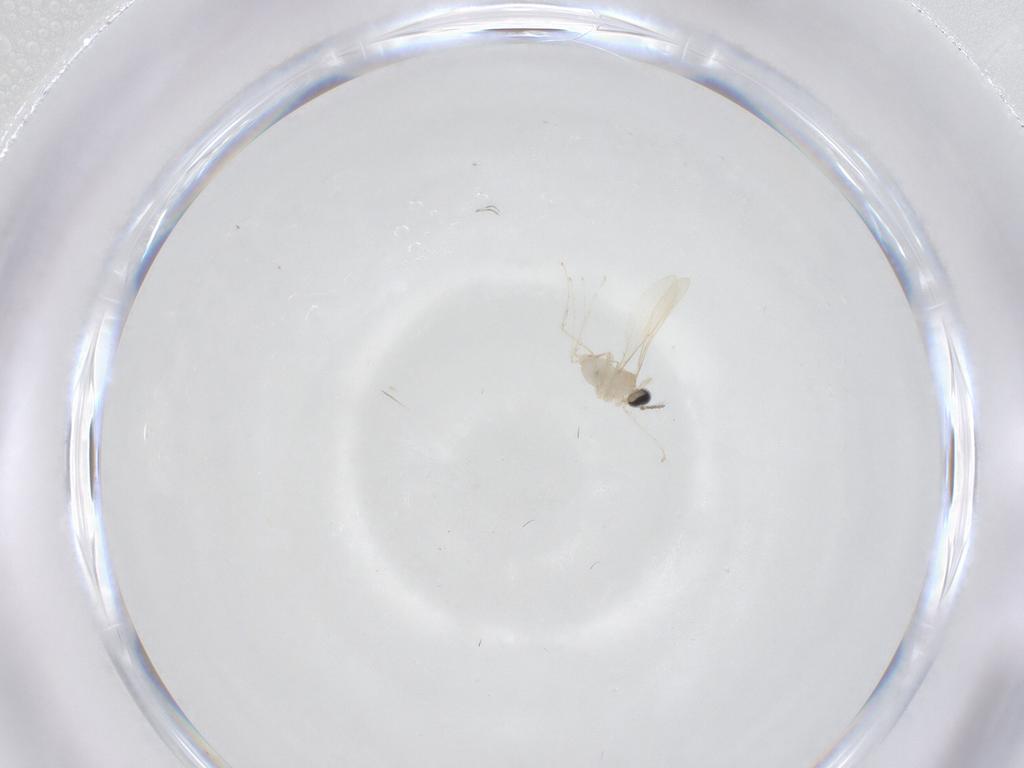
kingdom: Animalia
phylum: Arthropoda
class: Insecta
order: Diptera
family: Cecidomyiidae
